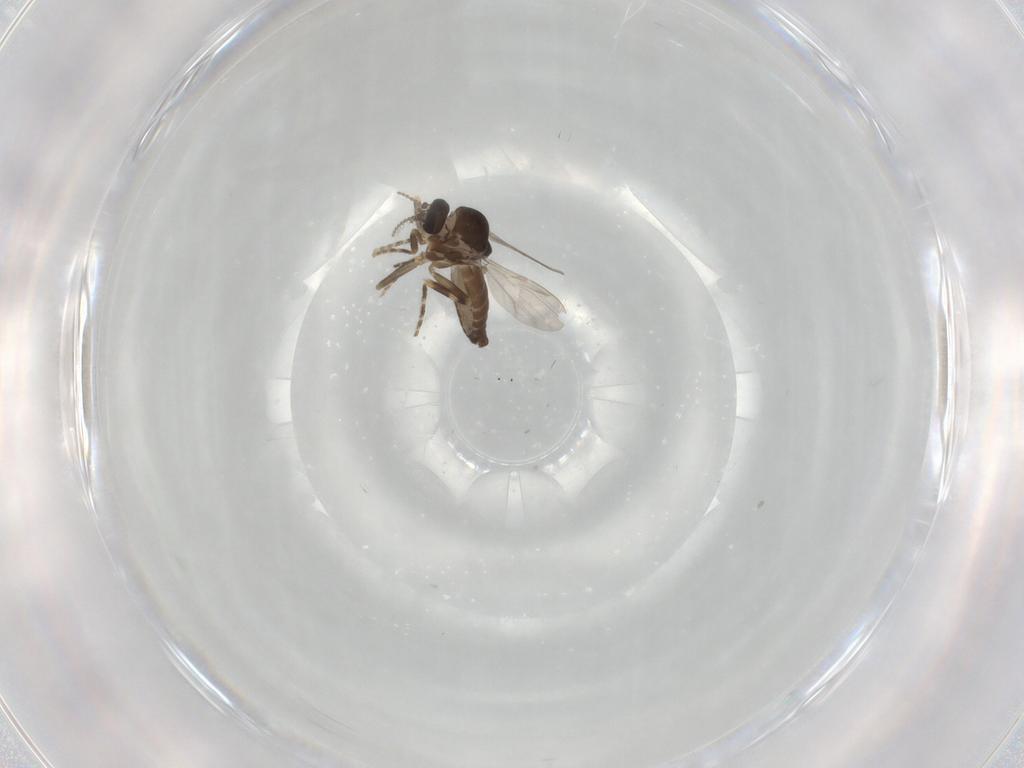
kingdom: Animalia
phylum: Arthropoda
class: Insecta
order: Diptera
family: Ceratopogonidae
